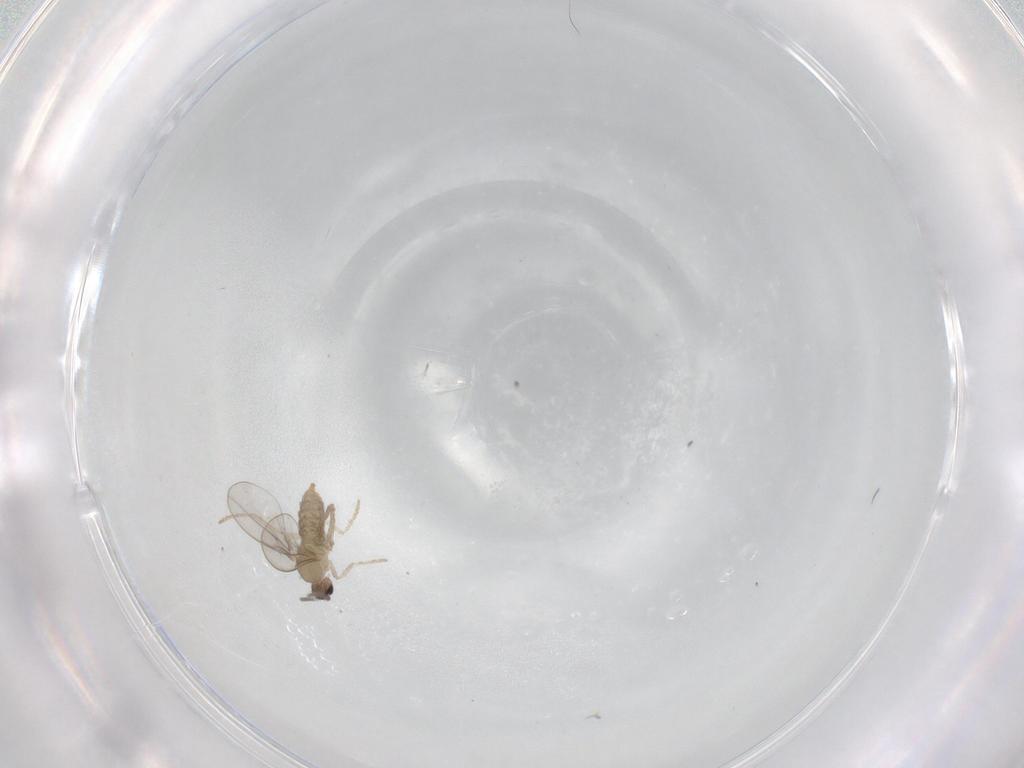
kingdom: Animalia
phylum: Arthropoda
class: Insecta
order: Diptera
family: Cecidomyiidae
